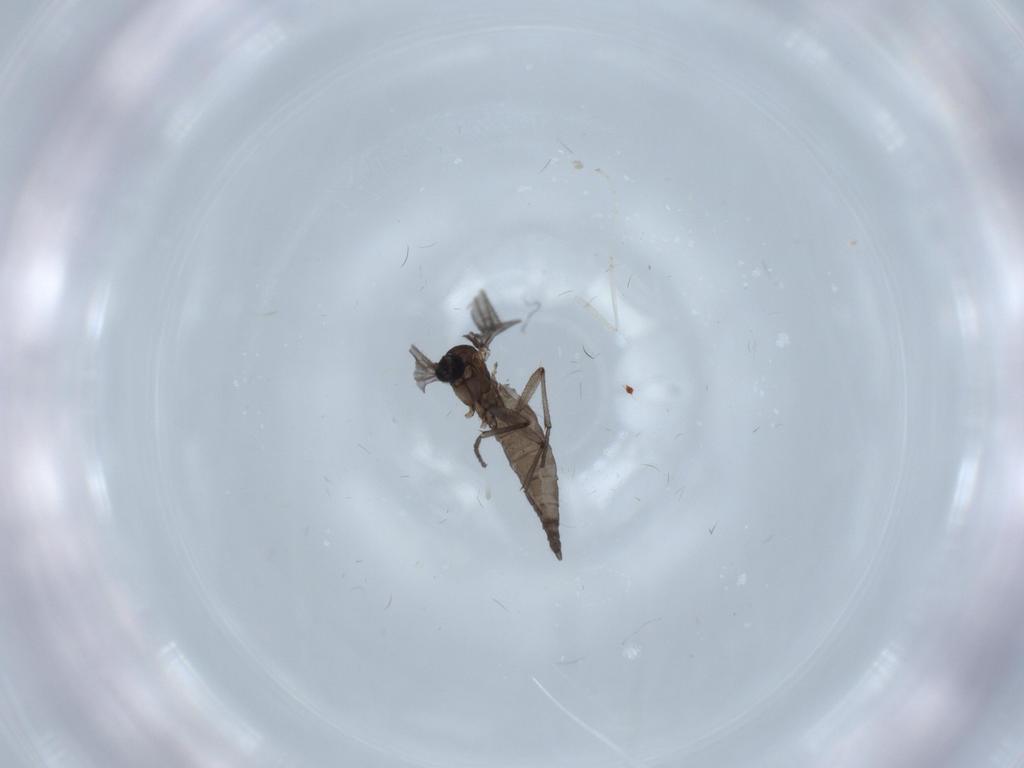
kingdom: Animalia
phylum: Arthropoda
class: Insecta
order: Diptera
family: Sciaridae
